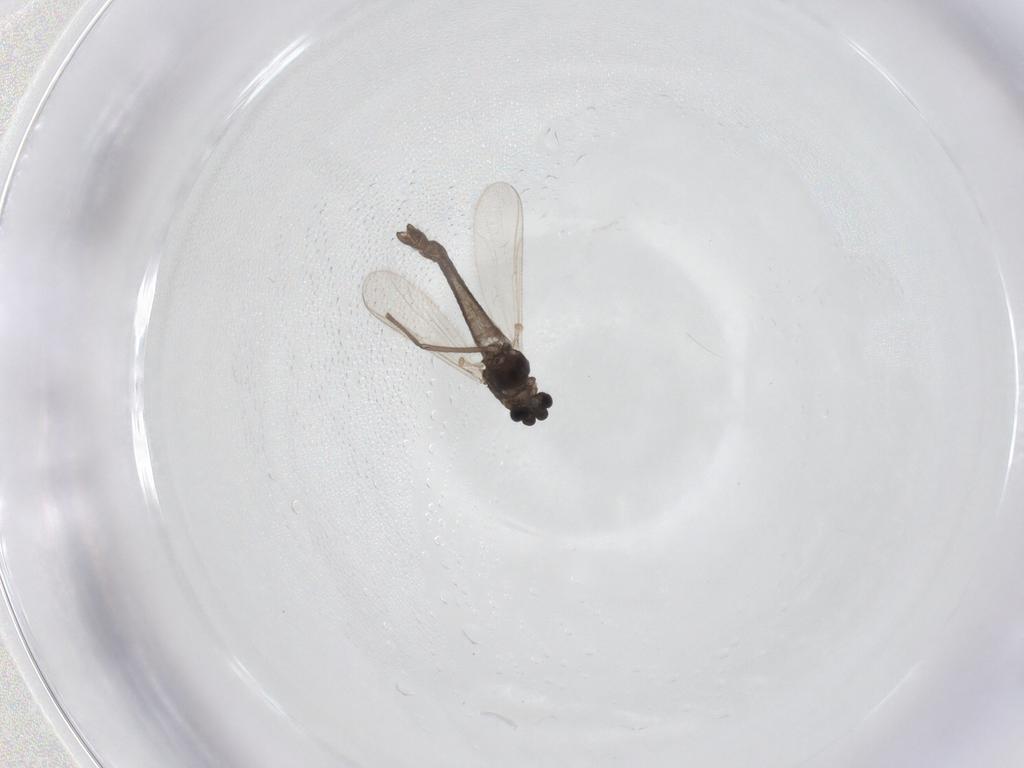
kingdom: Animalia
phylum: Arthropoda
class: Insecta
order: Diptera
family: Chironomidae
